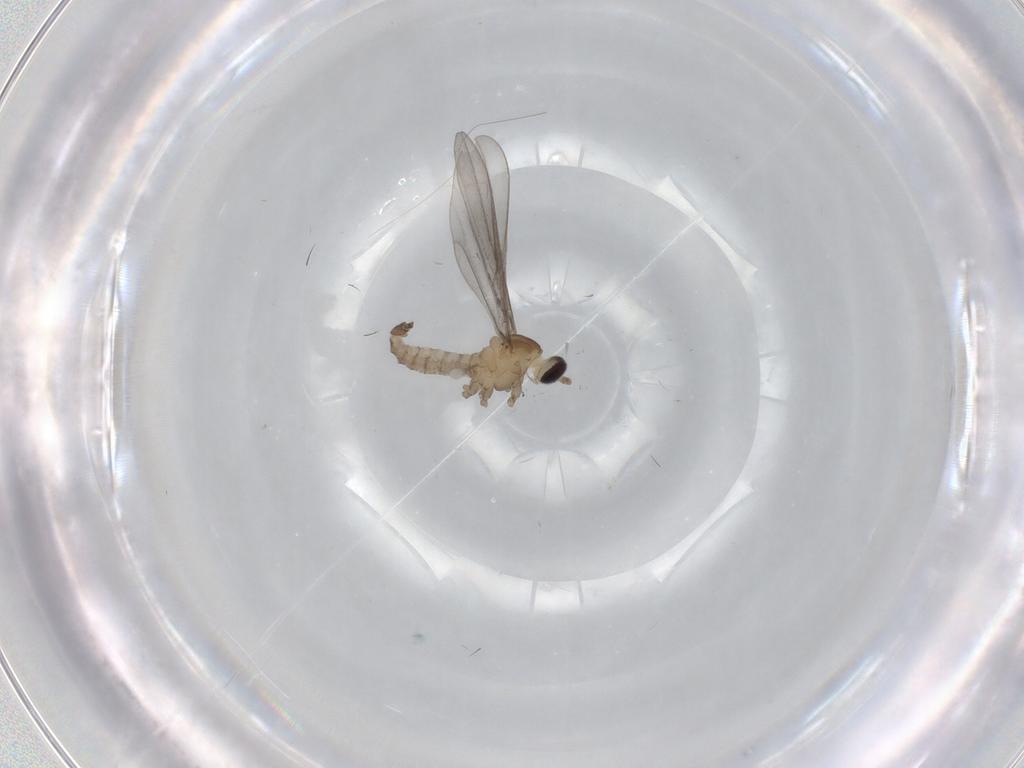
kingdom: Animalia
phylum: Arthropoda
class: Insecta
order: Diptera
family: Cecidomyiidae
